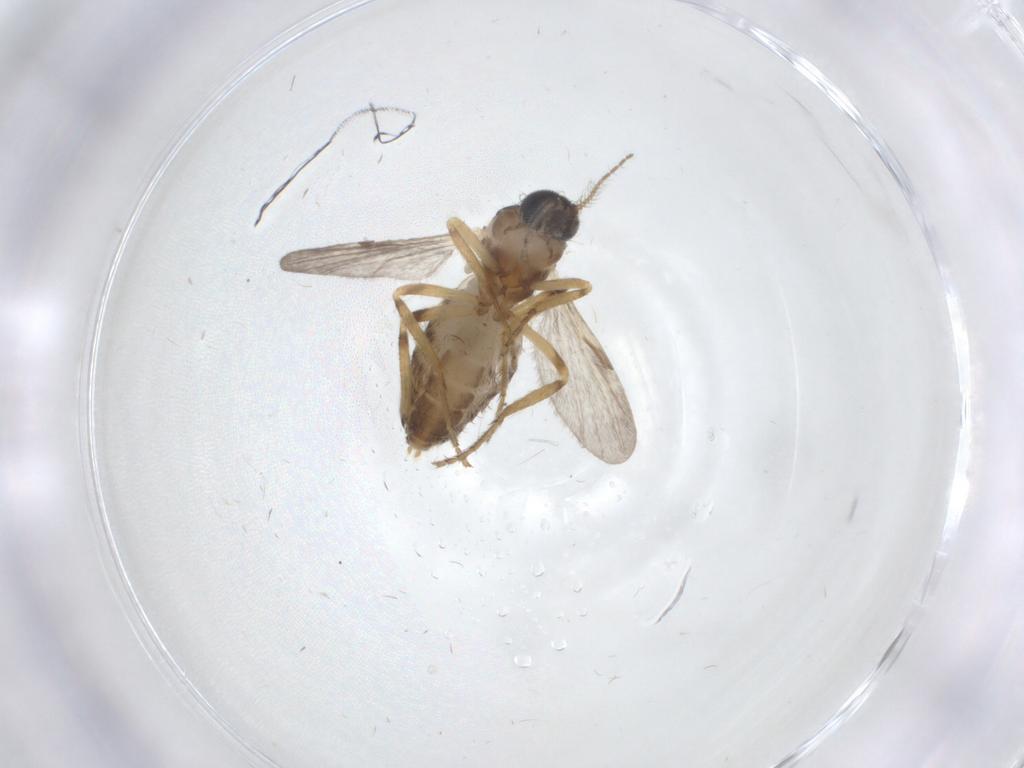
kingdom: Animalia
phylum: Arthropoda
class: Insecta
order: Diptera
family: Ceratopogonidae
